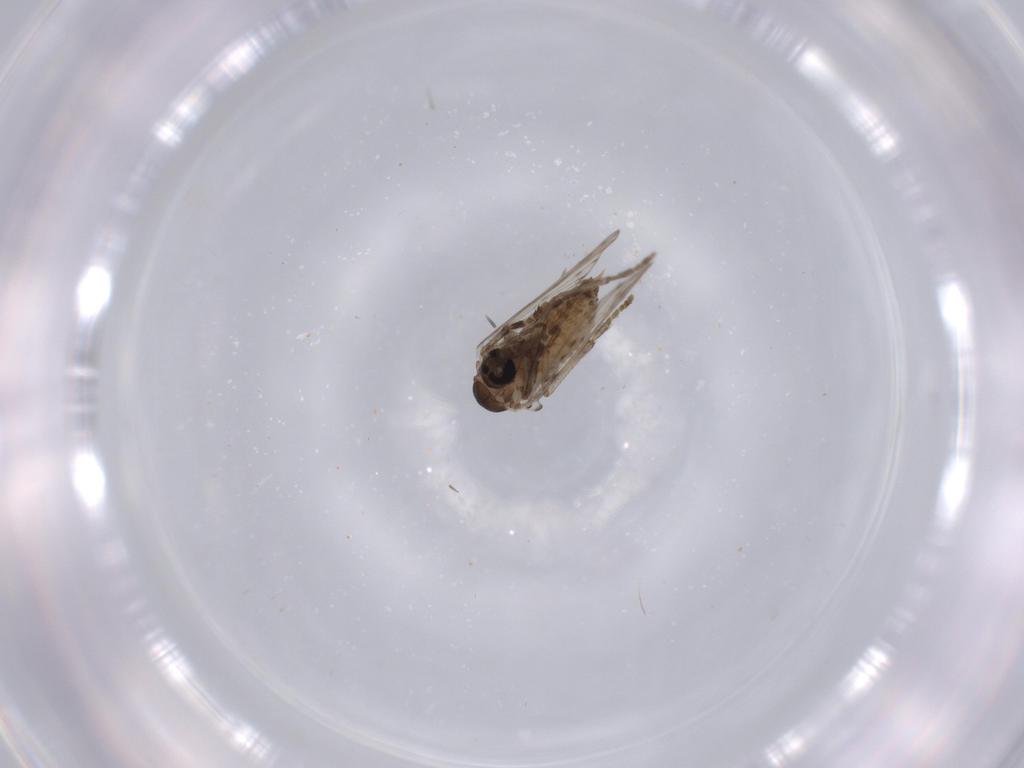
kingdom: Animalia
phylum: Arthropoda
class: Insecta
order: Diptera
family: Cecidomyiidae
